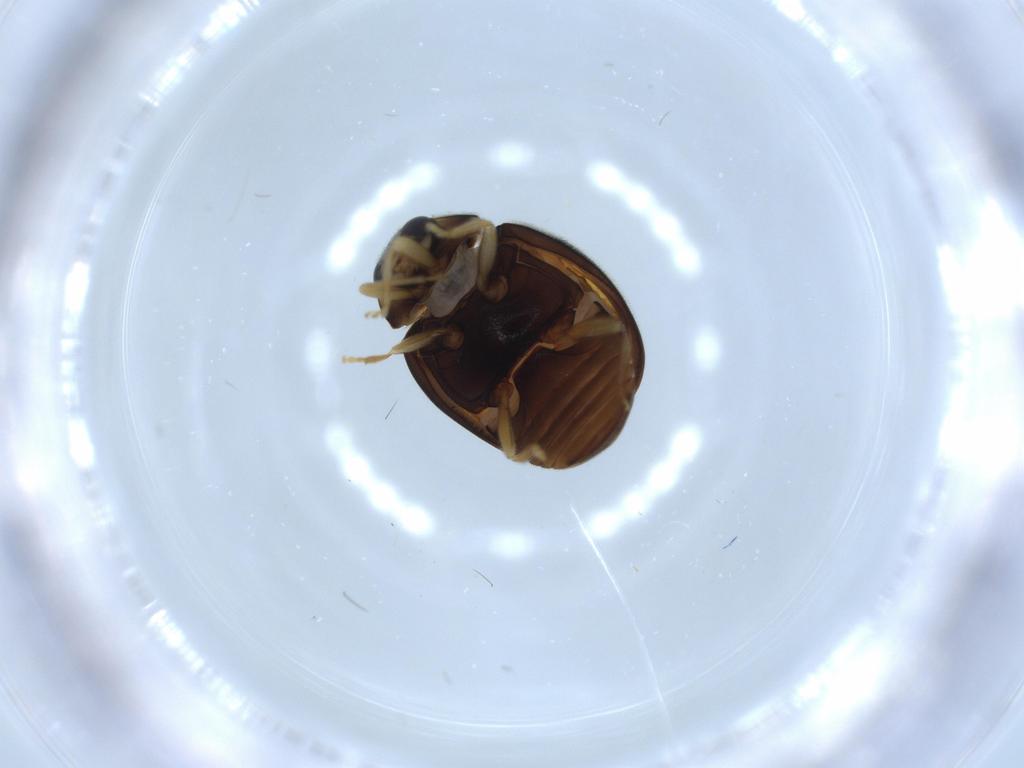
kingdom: Animalia
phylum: Arthropoda
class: Insecta
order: Coleoptera
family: Coccinellidae
